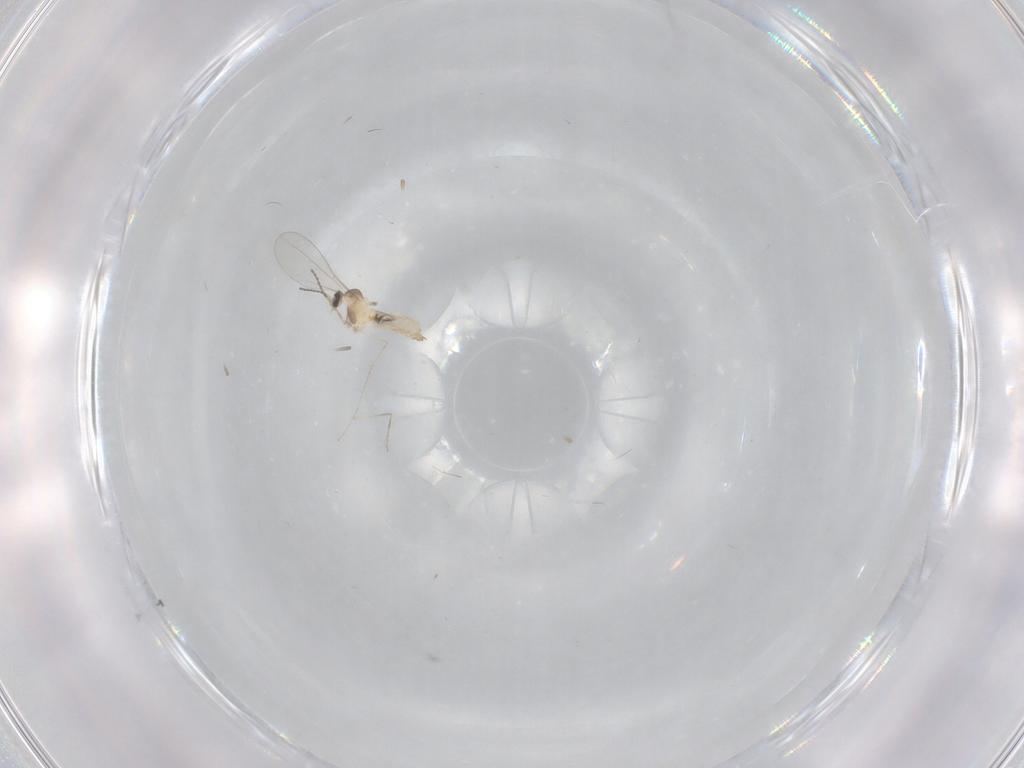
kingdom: Animalia
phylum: Arthropoda
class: Insecta
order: Diptera
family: Cecidomyiidae
